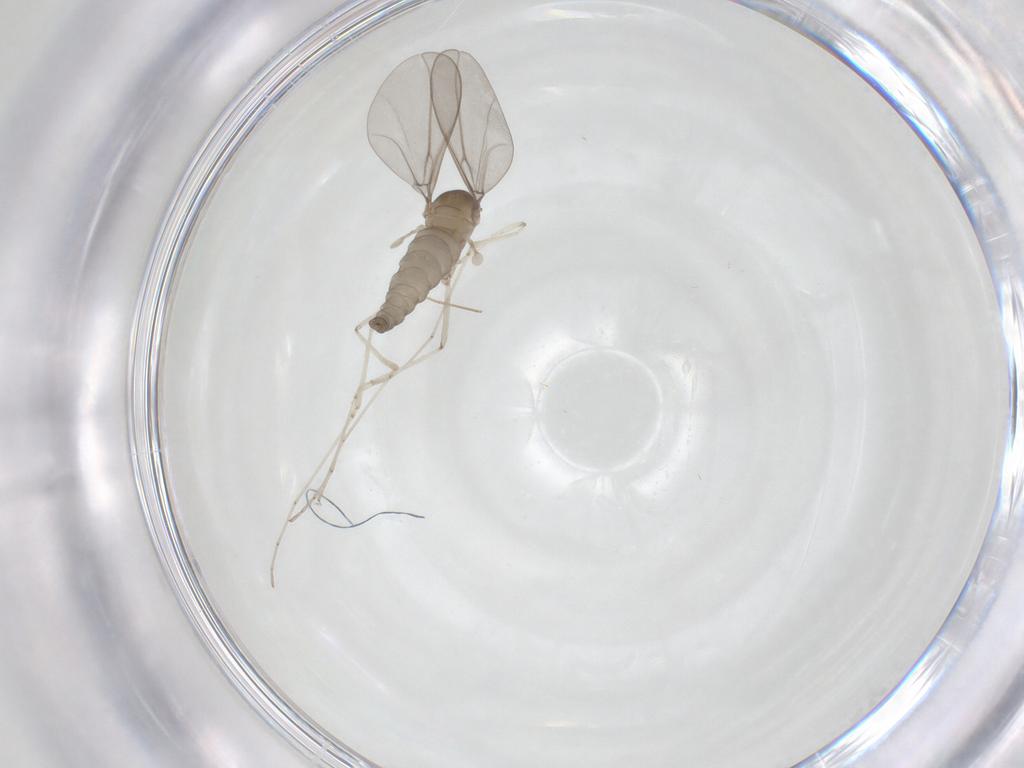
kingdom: Animalia
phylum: Arthropoda
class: Insecta
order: Diptera
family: Cecidomyiidae
